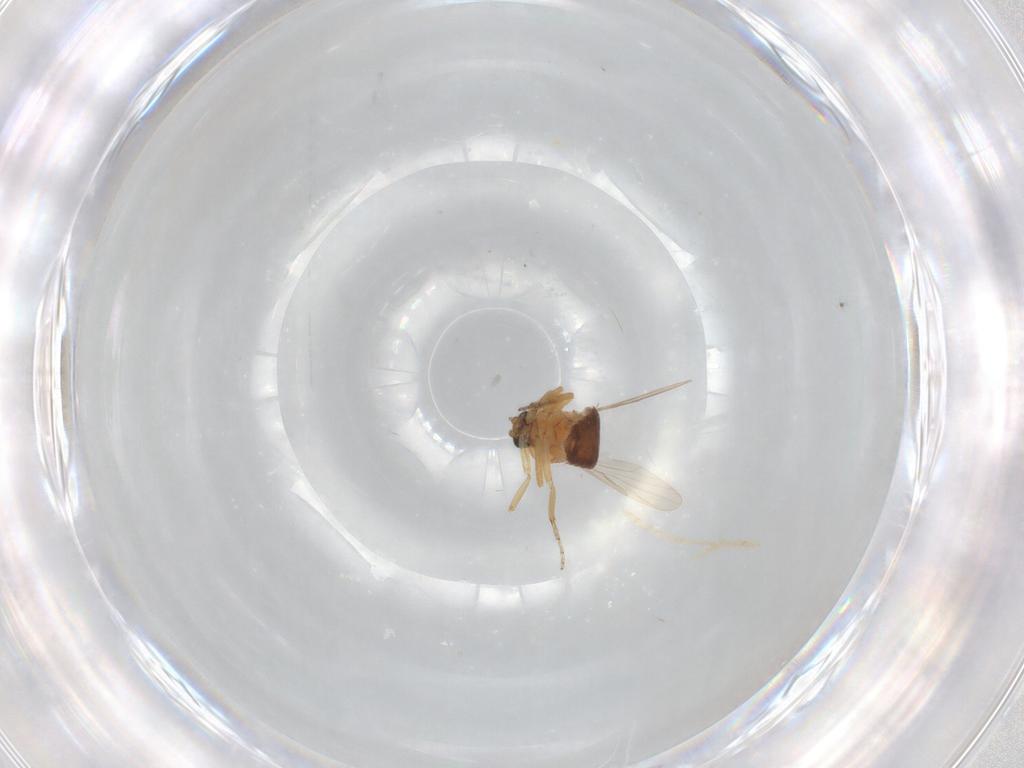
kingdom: Animalia
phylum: Arthropoda
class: Insecta
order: Diptera
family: Ceratopogonidae
